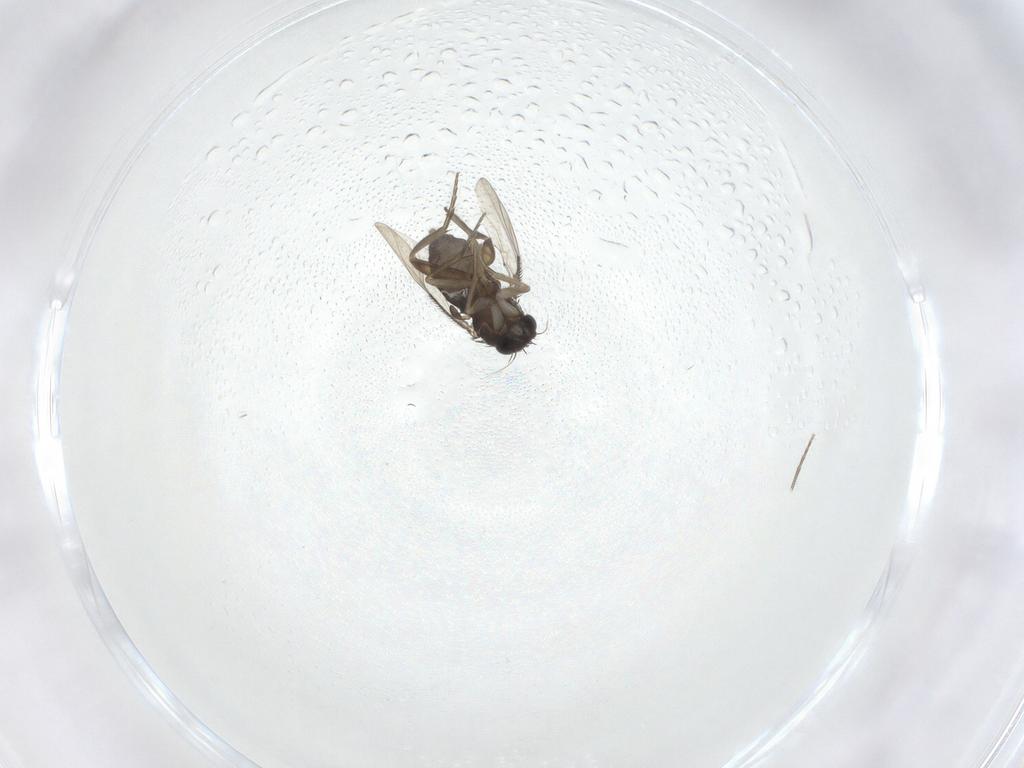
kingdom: Animalia
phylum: Arthropoda
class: Insecta
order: Diptera
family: Phoridae
